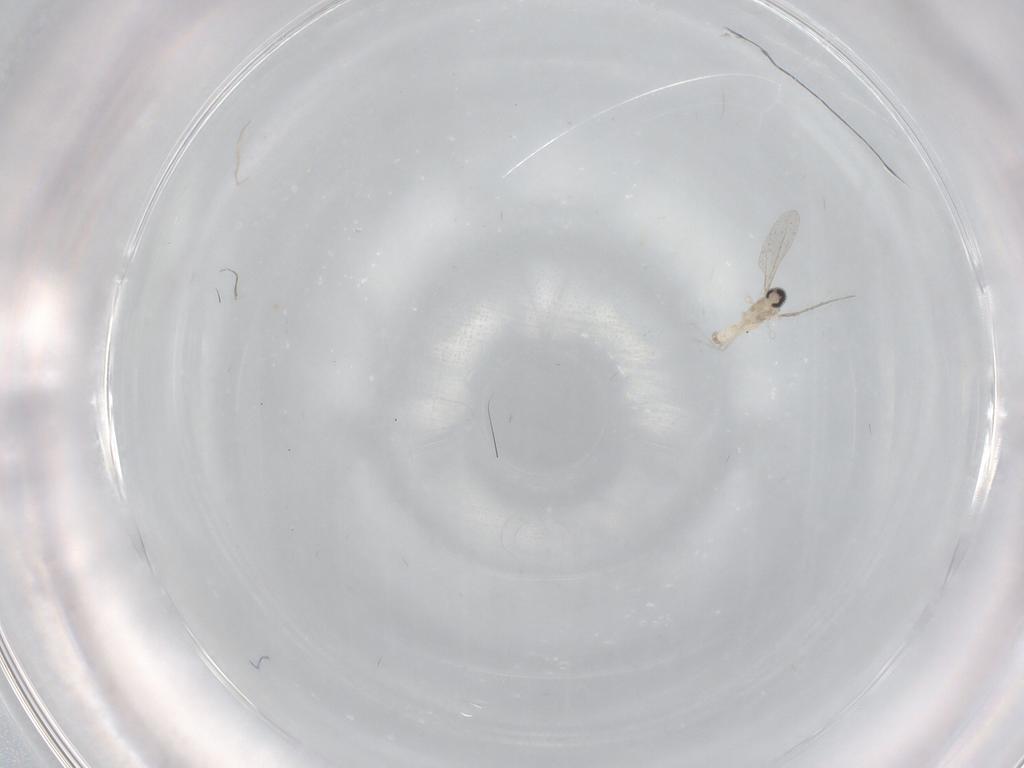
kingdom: Animalia
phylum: Arthropoda
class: Insecta
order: Diptera
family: Chironomidae
